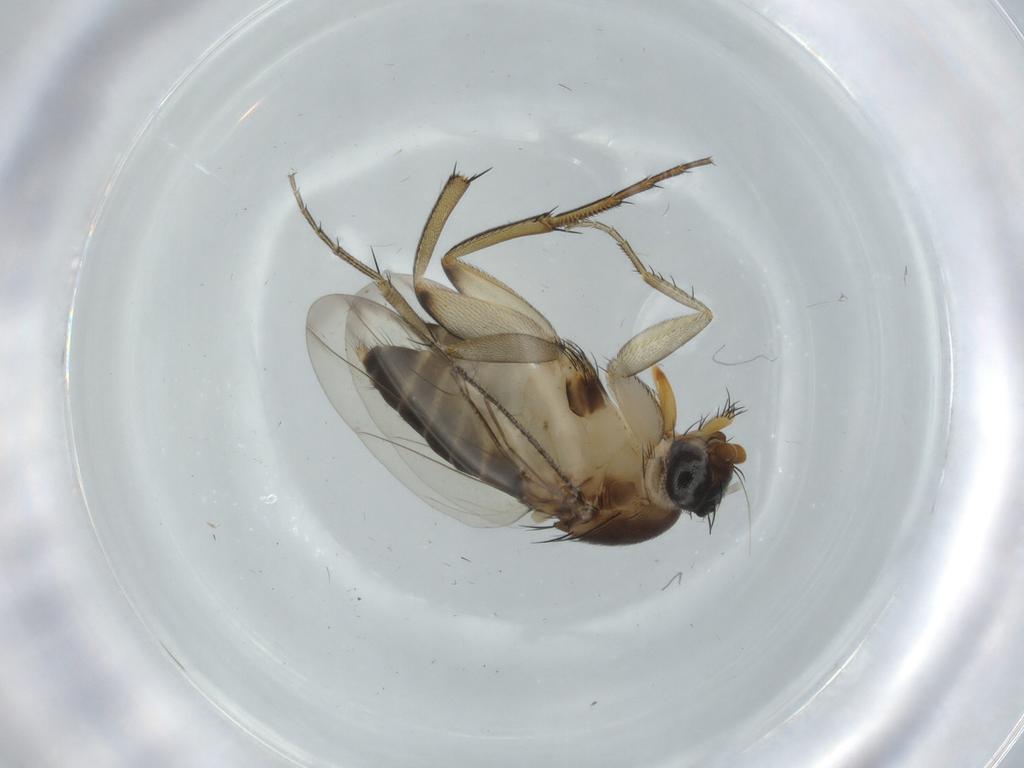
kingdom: Animalia
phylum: Arthropoda
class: Insecta
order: Diptera
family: Phoridae
